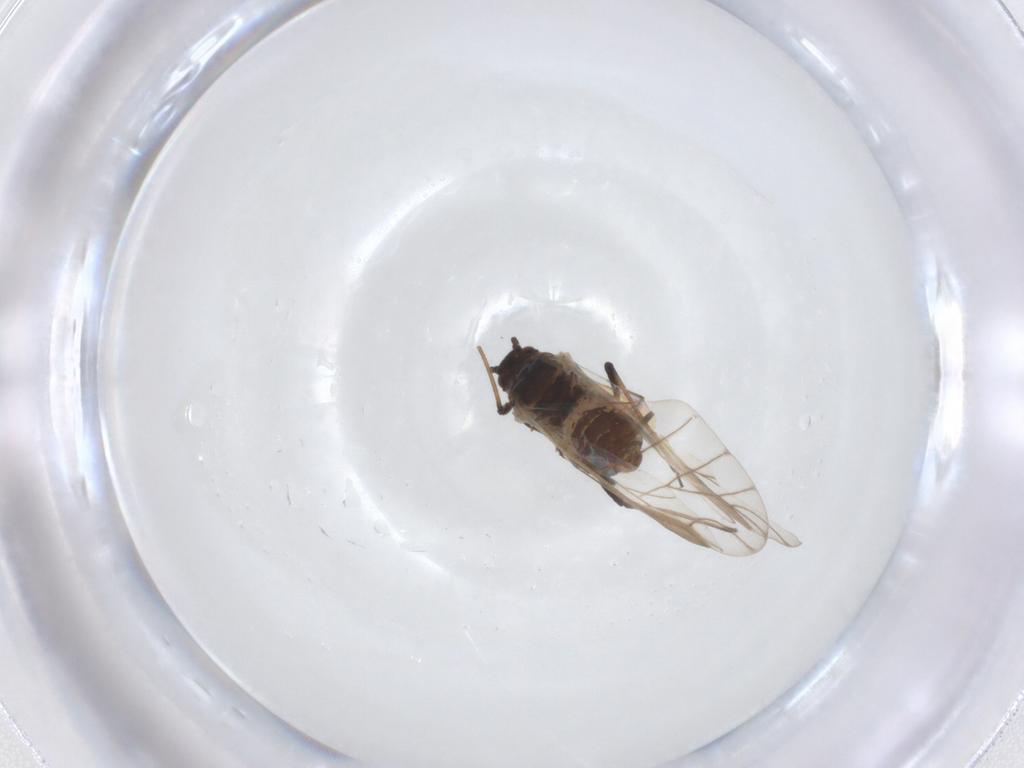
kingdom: Animalia
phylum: Arthropoda
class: Insecta
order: Hemiptera
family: Aphididae
